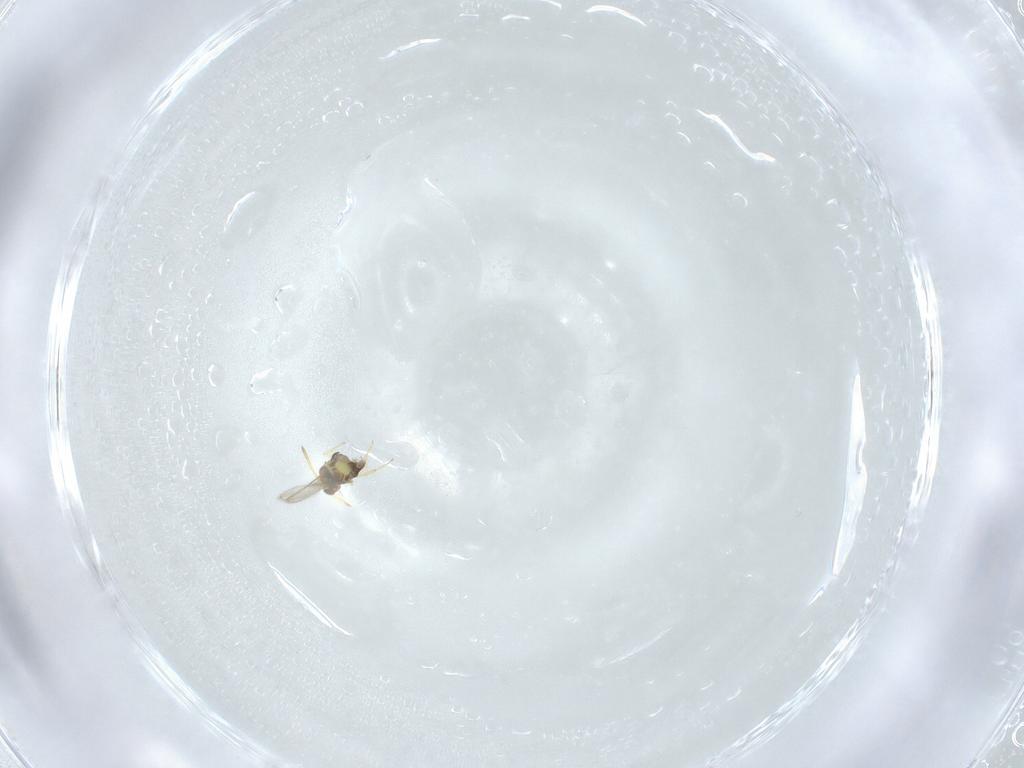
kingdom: Animalia
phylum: Arthropoda
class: Insecta
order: Hymenoptera
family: Aphelinidae
